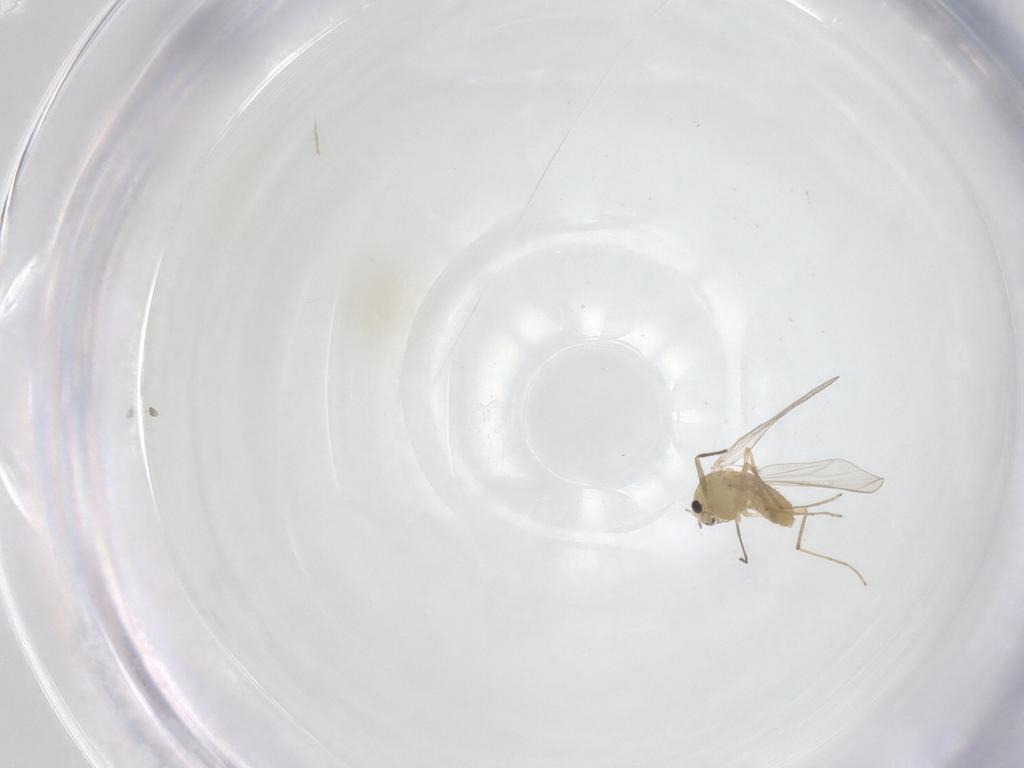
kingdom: Animalia
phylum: Arthropoda
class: Insecta
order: Diptera
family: Chironomidae
